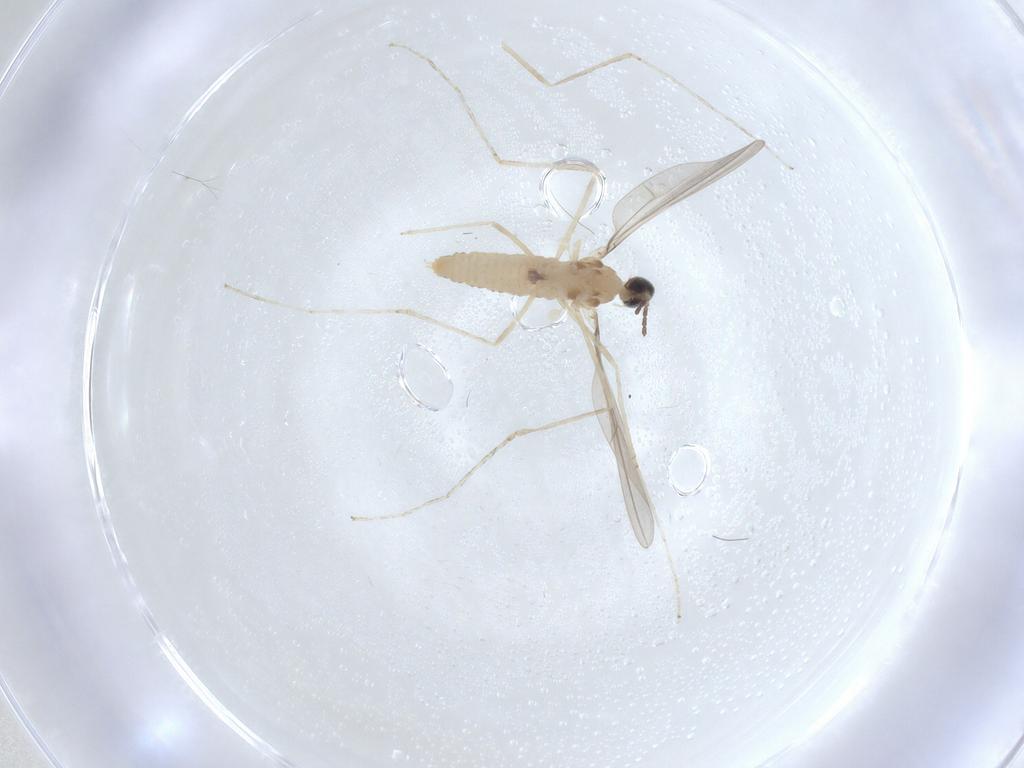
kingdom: Animalia
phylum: Arthropoda
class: Insecta
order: Diptera
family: Cecidomyiidae
